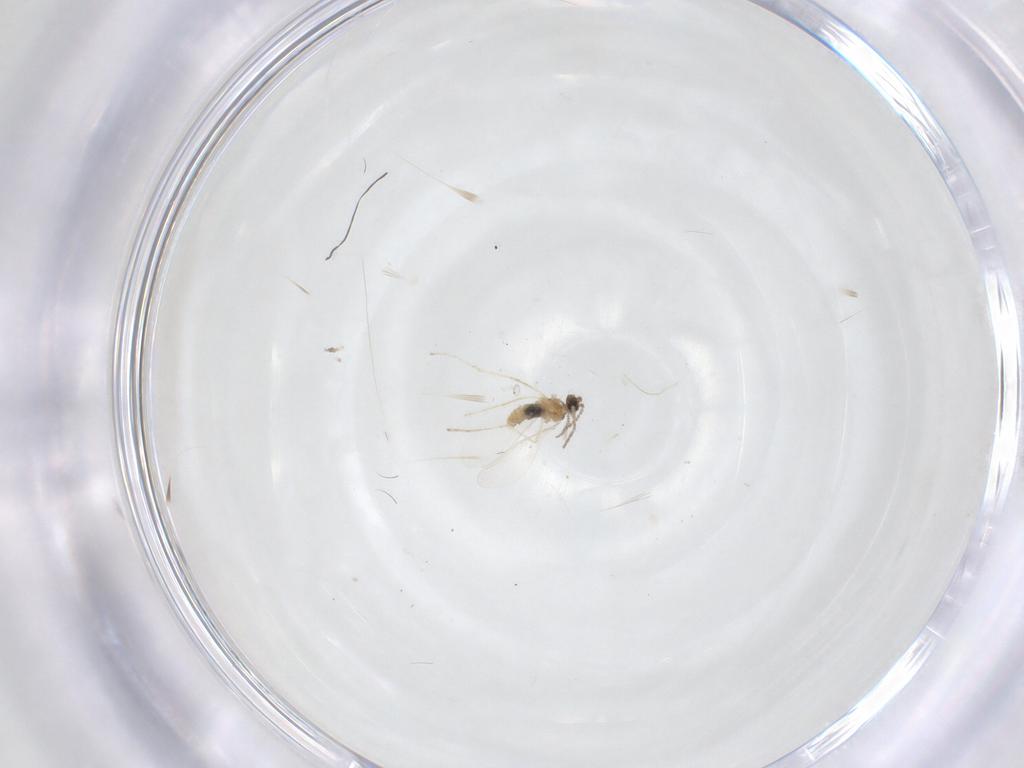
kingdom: Animalia
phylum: Arthropoda
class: Insecta
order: Diptera
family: Cecidomyiidae
